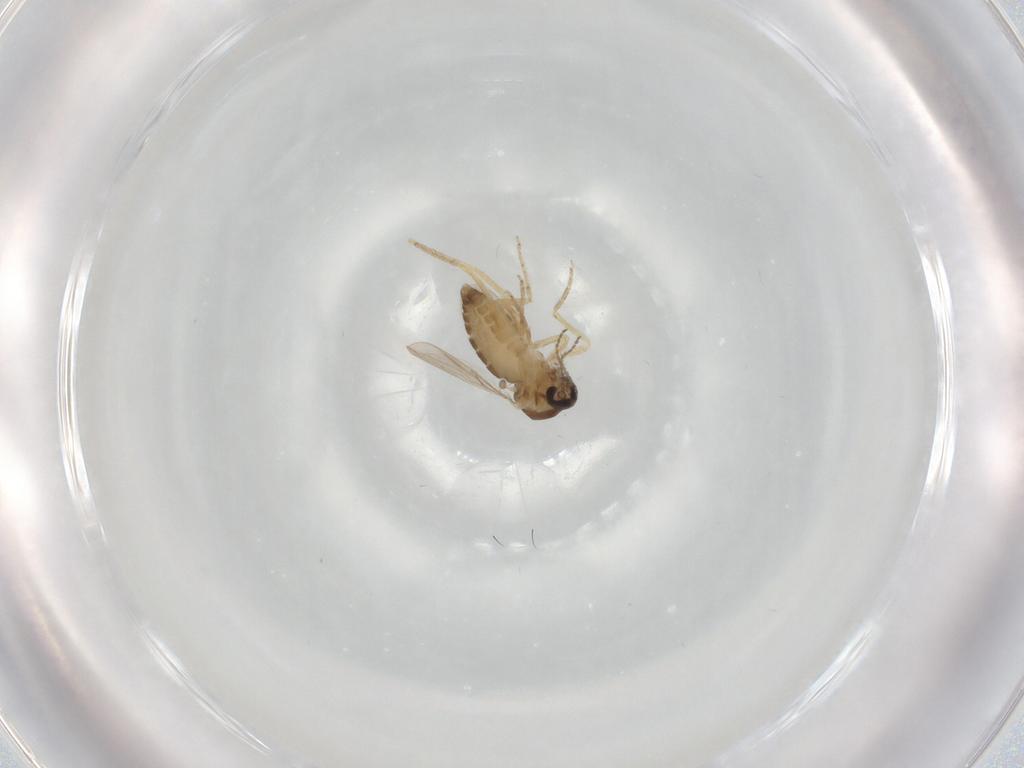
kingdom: Animalia
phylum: Arthropoda
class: Insecta
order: Diptera
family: Ceratopogonidae
